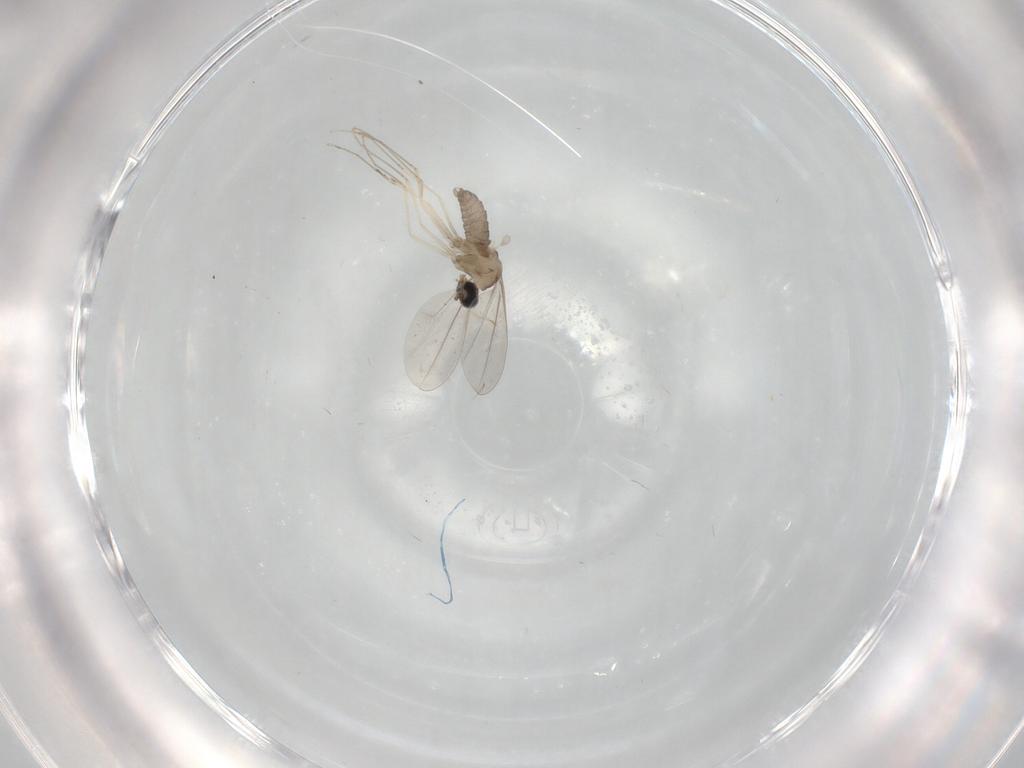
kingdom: Animalia
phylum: Arthropoda
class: Insecta
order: Diptera
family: Cecidomyiidae
